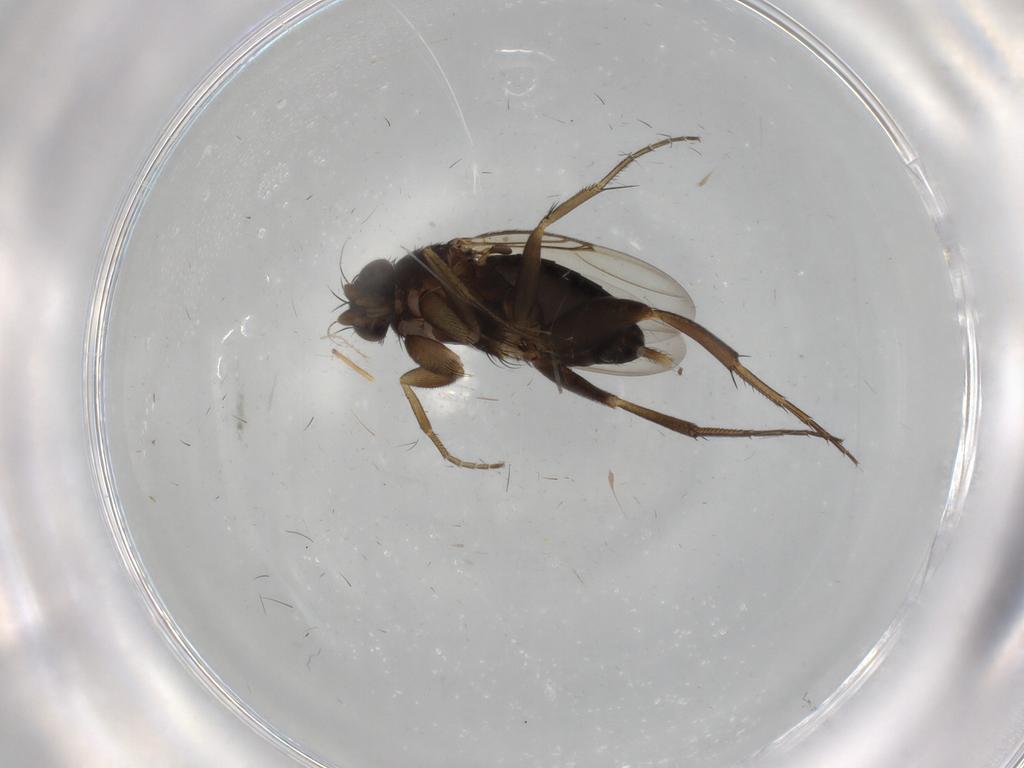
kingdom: Animalia
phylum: Arthropoda
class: Insecta
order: Diptera
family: Phoridae
